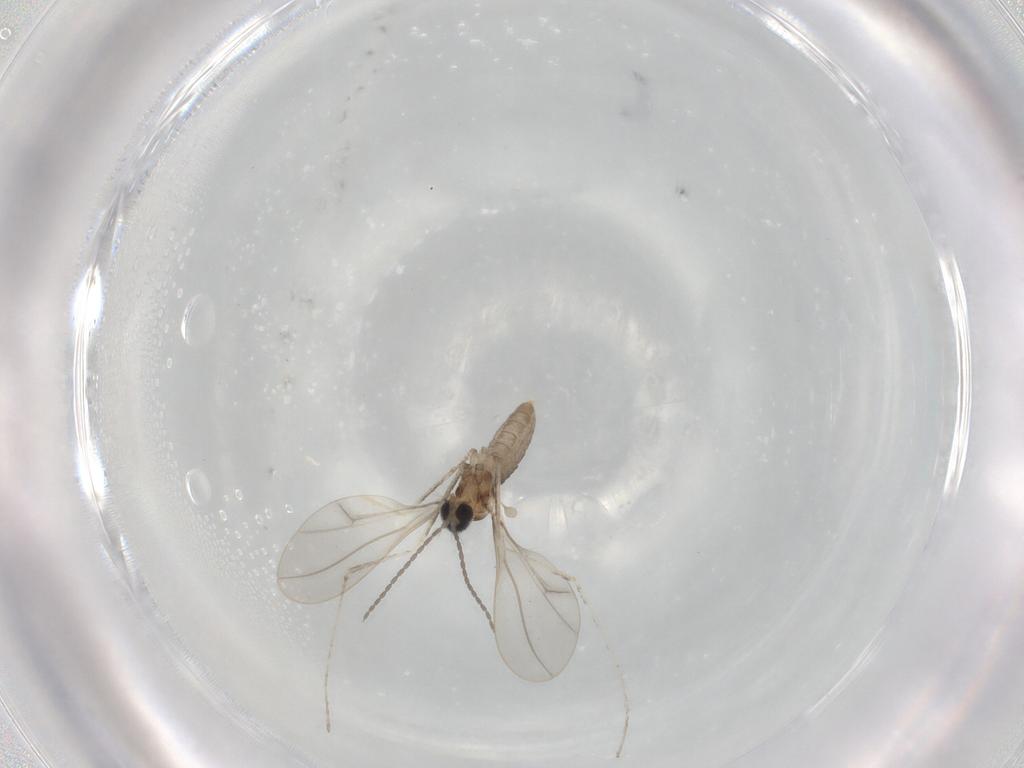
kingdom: Animalia
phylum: Arthropoda
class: Insecta
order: Diptera
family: Cecidomyiidae
